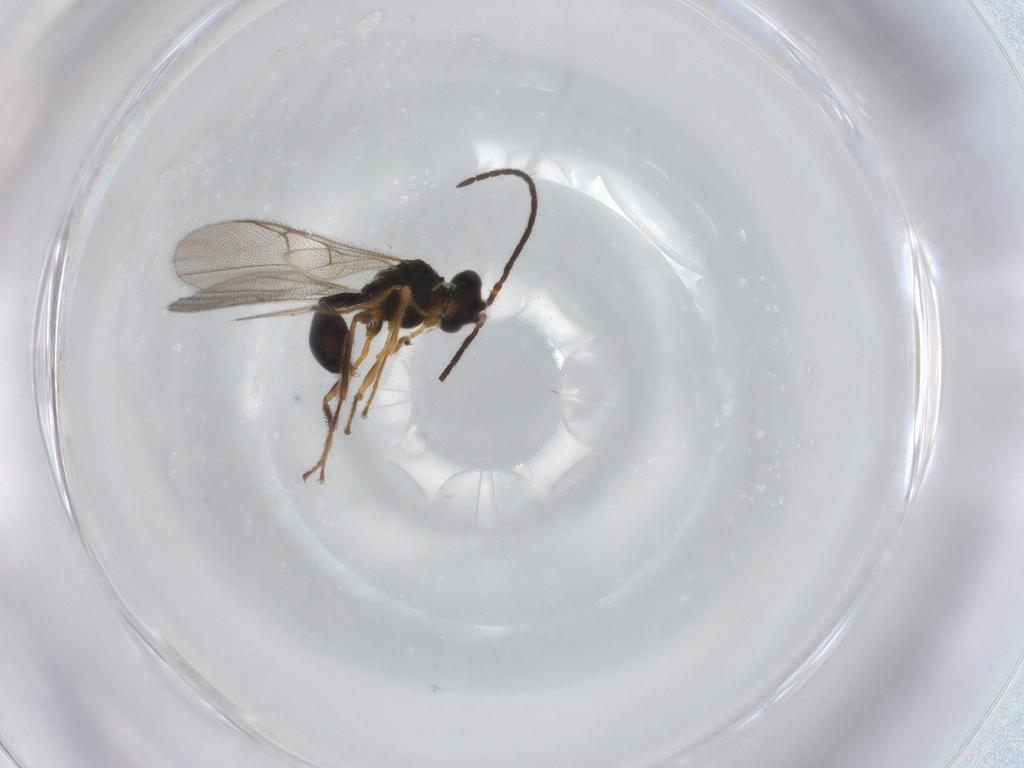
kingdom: Animalia
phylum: Arthropoda
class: Insecta
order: Hymenoptera
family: Diapriidae
